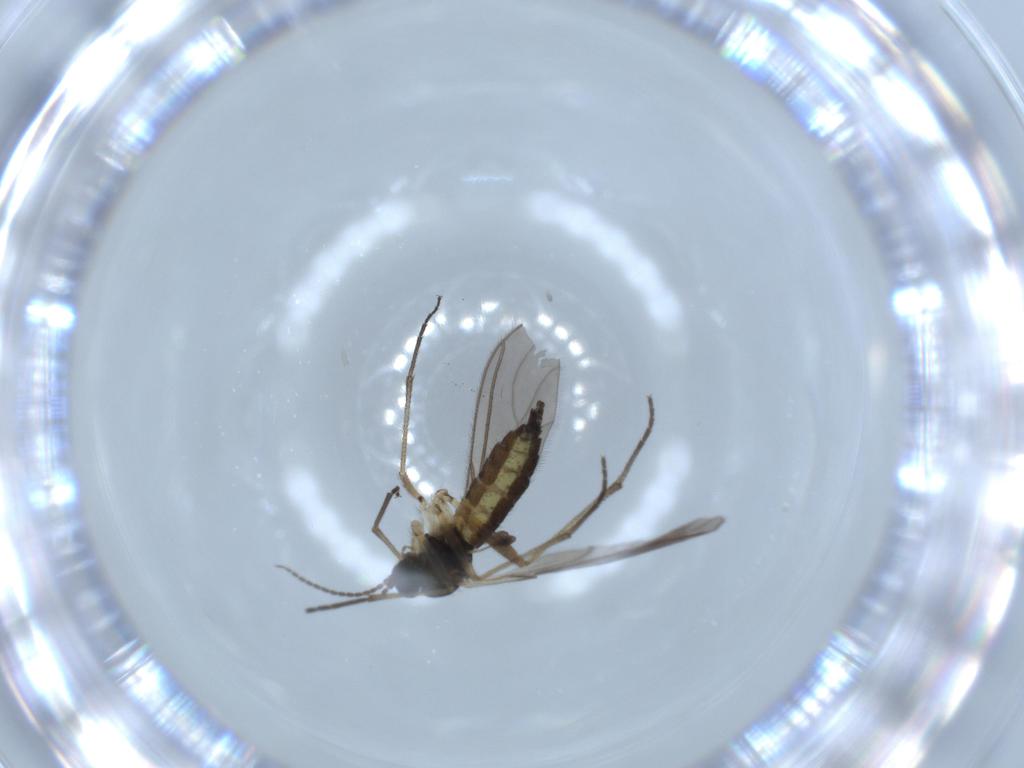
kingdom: Animalia
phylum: Arthropoda
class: Insecta
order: Diptera
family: Sciaridae
